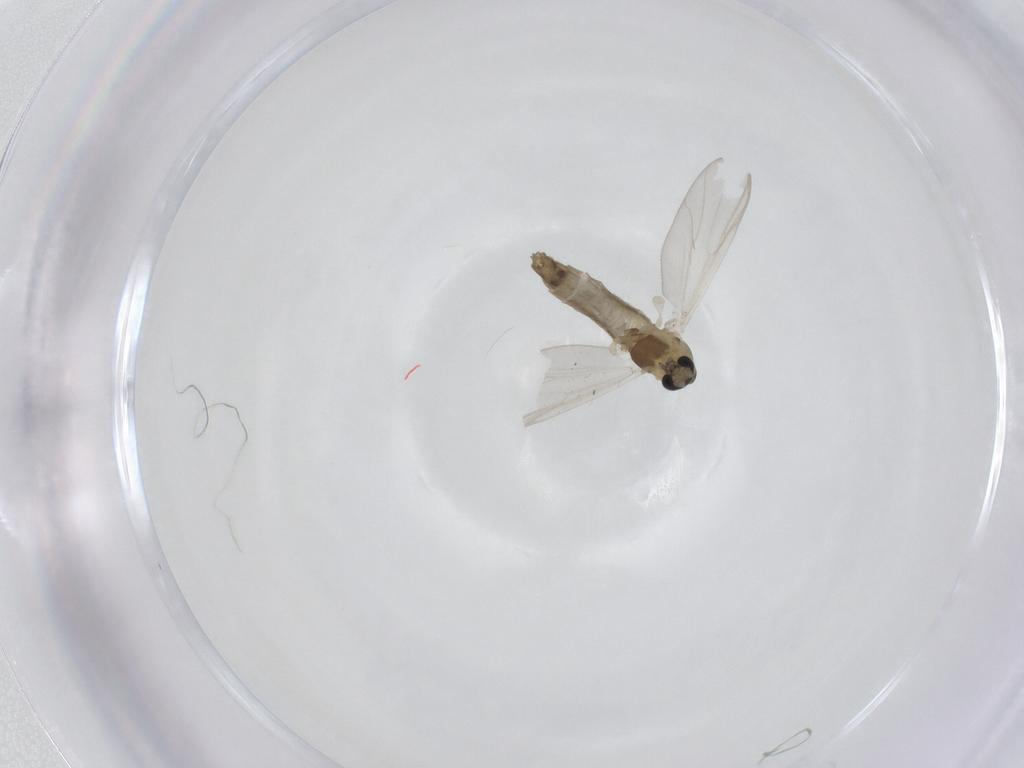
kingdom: Animalia
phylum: Arthropoda
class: Insecta
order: Diptera
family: Chironomidae
